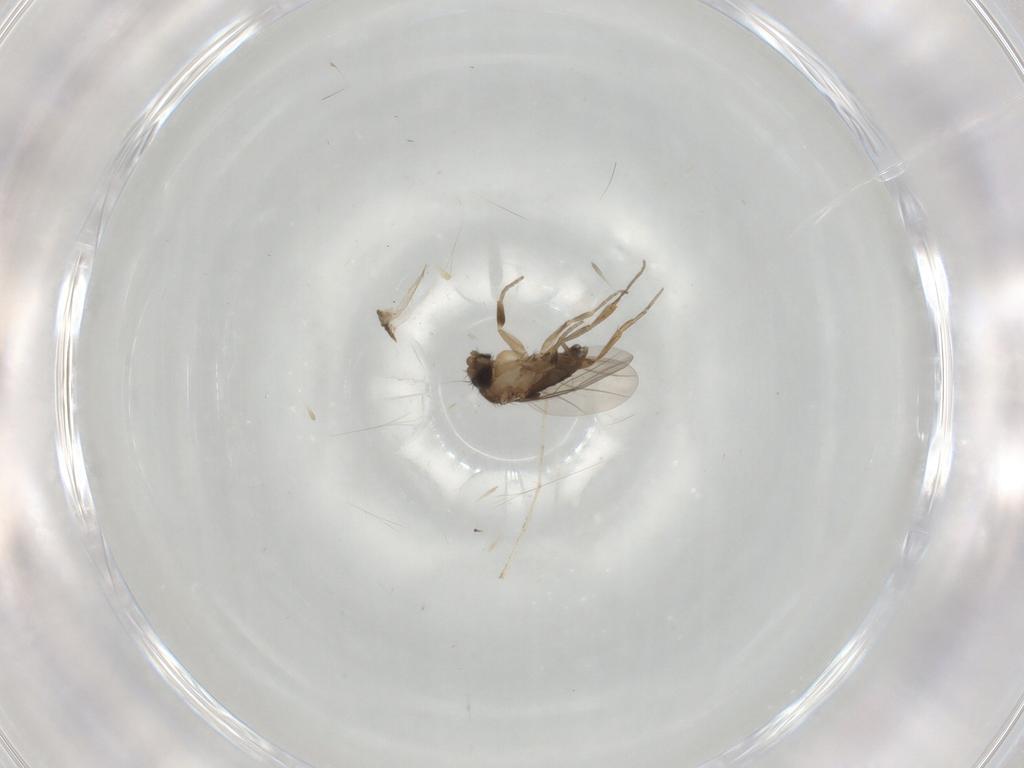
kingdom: Animalia
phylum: Arthropoda
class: Insecta
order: Diptera
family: Phoridae
